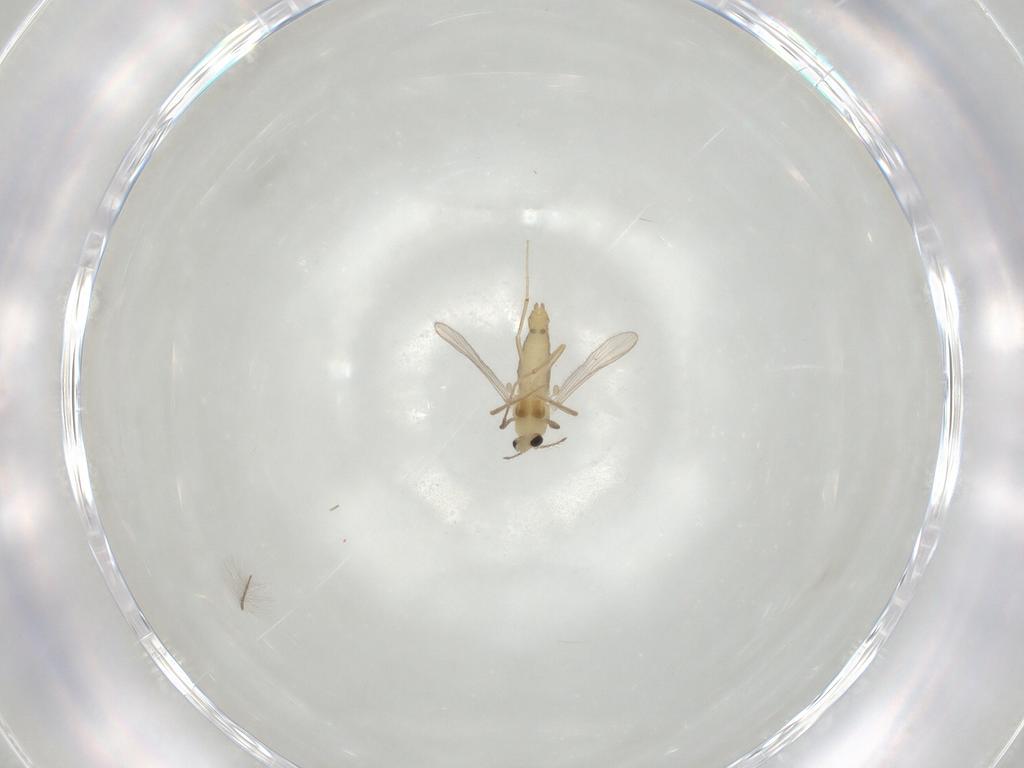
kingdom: Animalia
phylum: Arthropoda
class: Insecta
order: Diptera
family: Chironomidae
